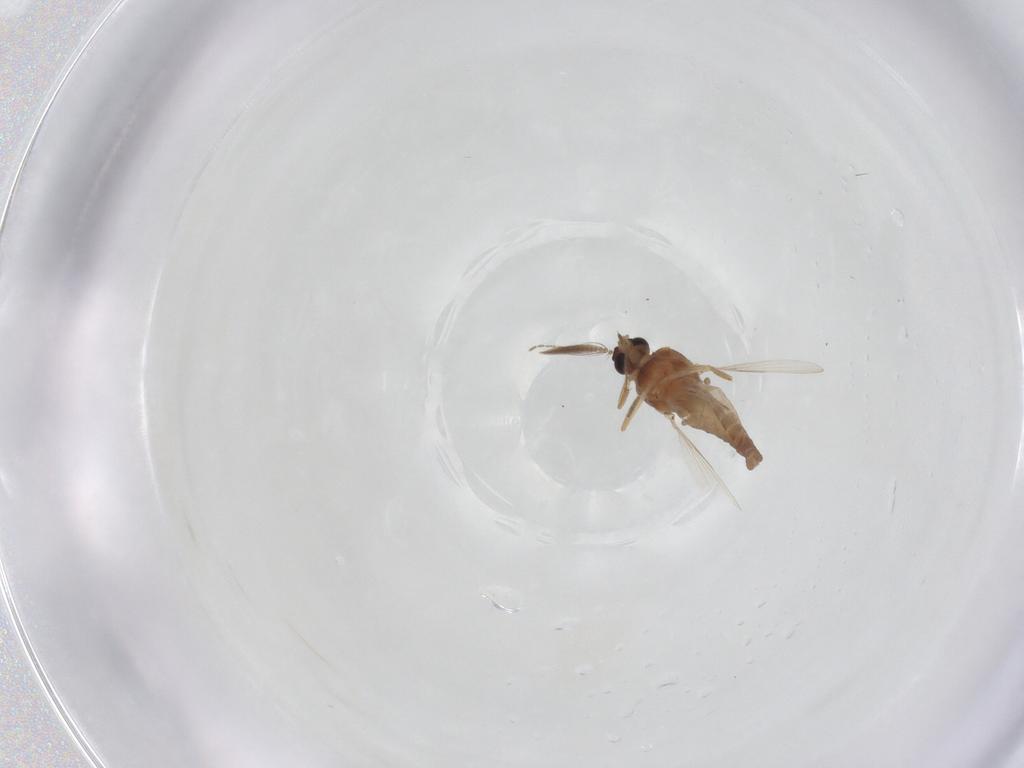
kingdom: Animalia
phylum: Arthropoda
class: Insecta
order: Diptera
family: Ceratopogonidae
